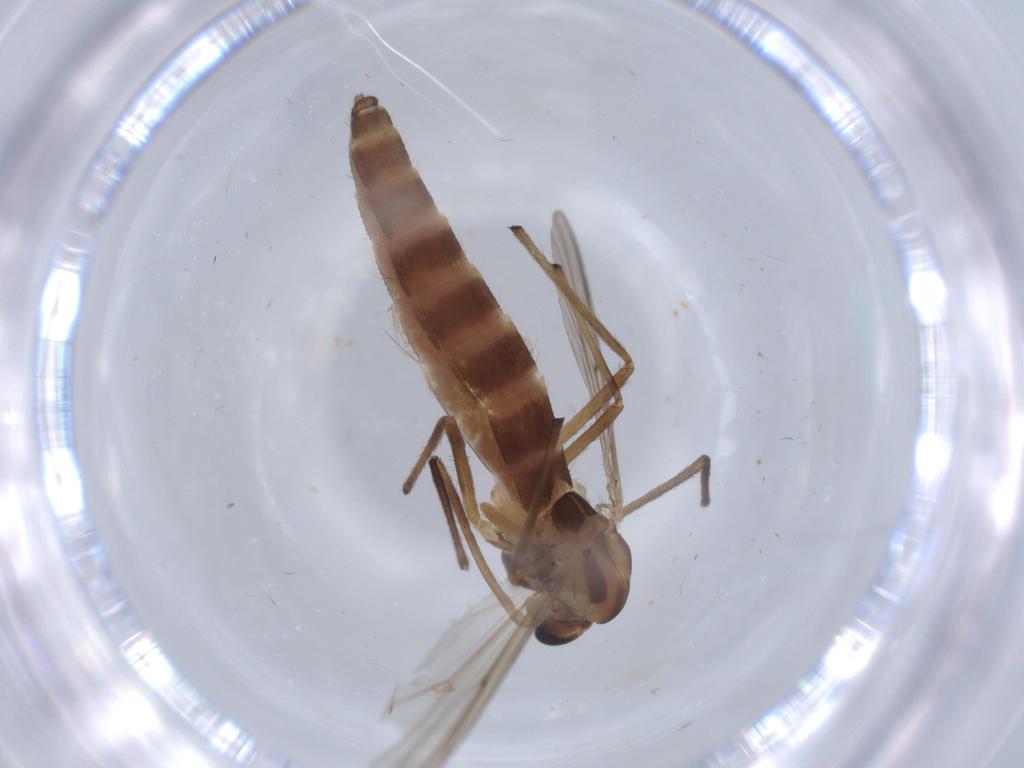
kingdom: Animalia
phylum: Arthropoda
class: Insecta
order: Diptera
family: Chironomidae
